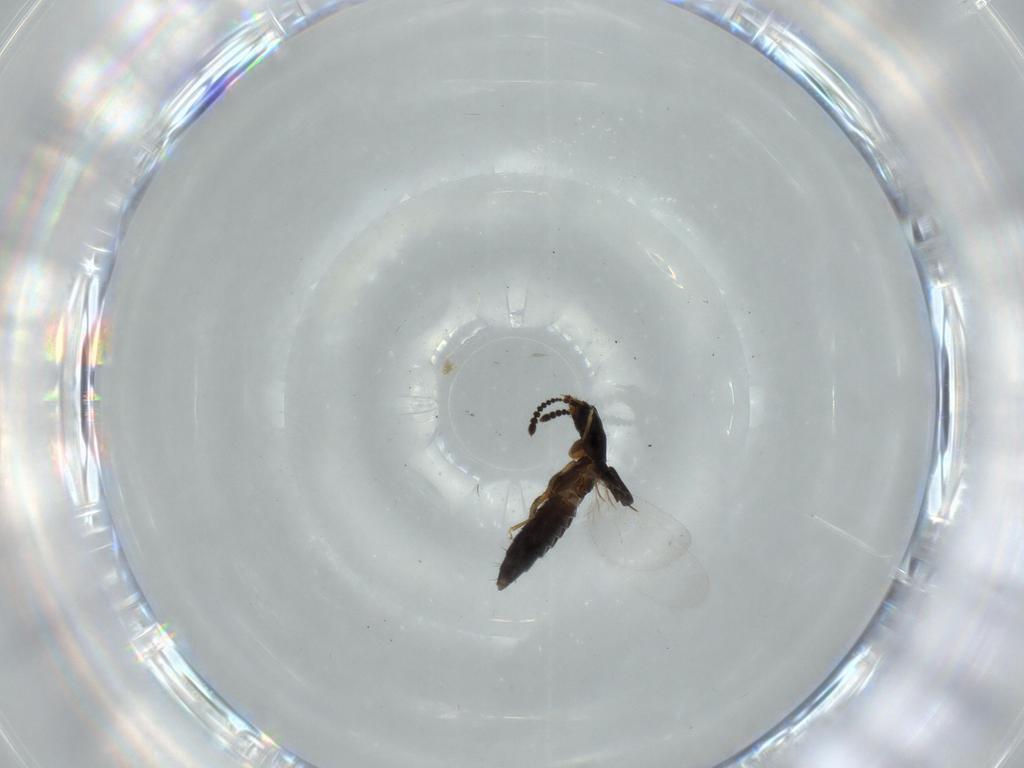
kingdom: Animalia
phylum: Arthropoda
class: Insecta
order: Coleoptera
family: Staphylinidae
